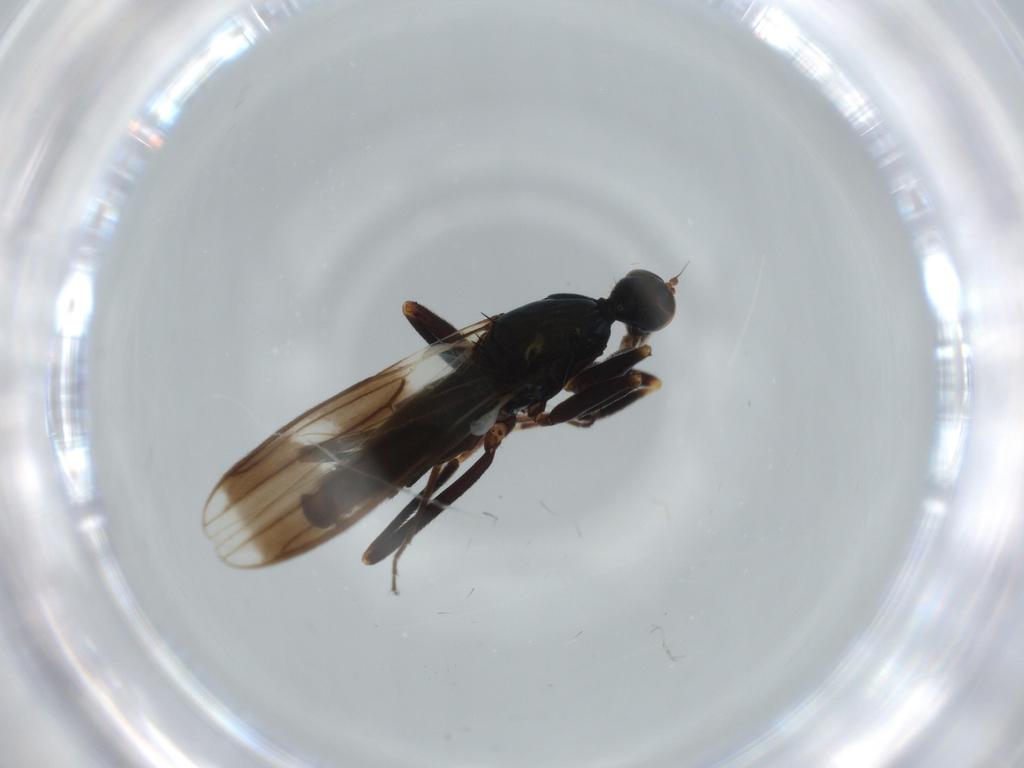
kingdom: Animalia
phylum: Arthropoda
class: Insecta
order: Diptera
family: Hybotidae
